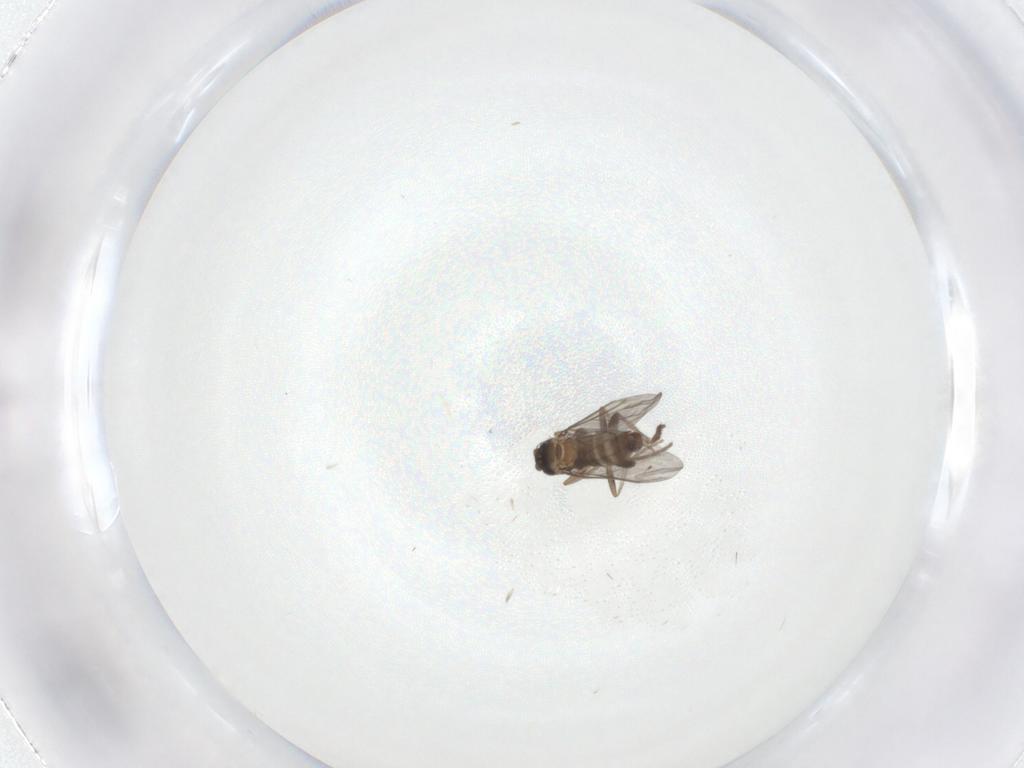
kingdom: Animalia
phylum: Arthropoda
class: Insecta
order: Diptera
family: Phoridae
